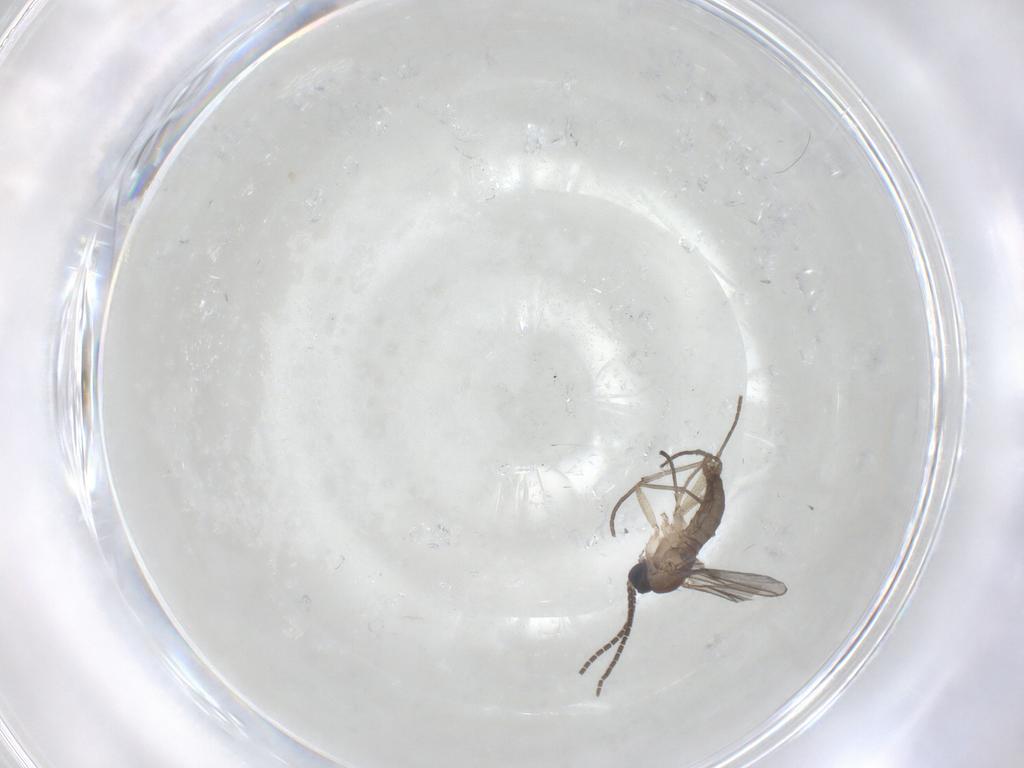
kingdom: Animalia
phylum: Arthropoda
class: Insecta
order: Diptera
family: Sciaridae
